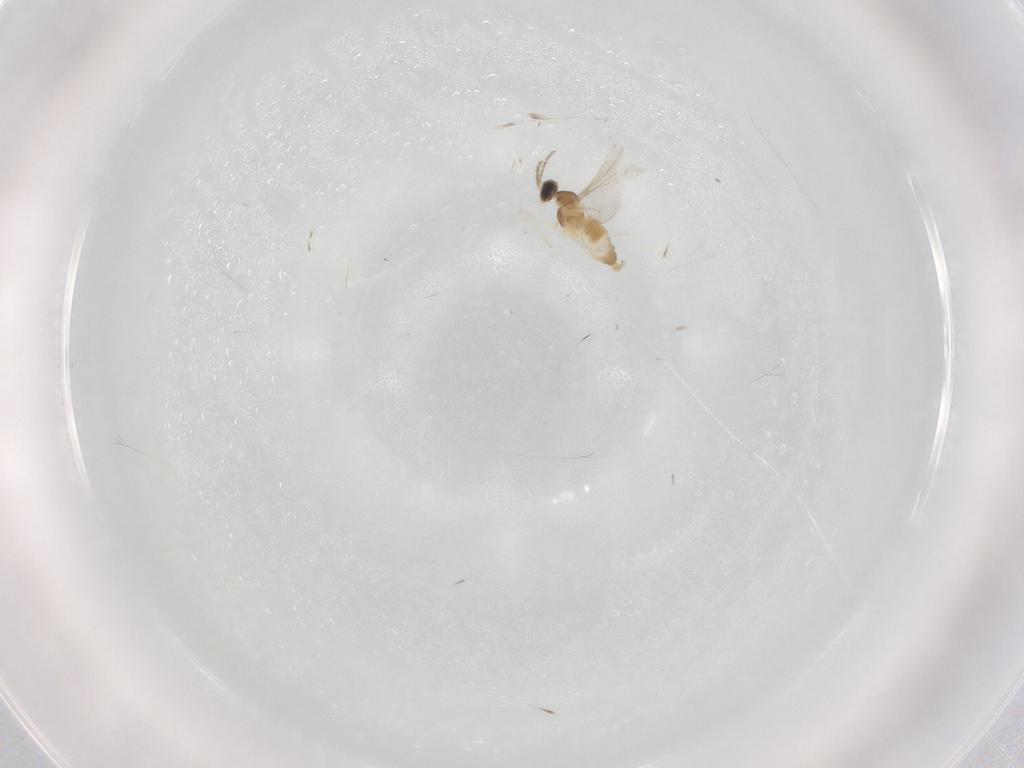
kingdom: Animalia
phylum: Arthropoda
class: Insecta
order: Diptera
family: Cecidomyiidae
